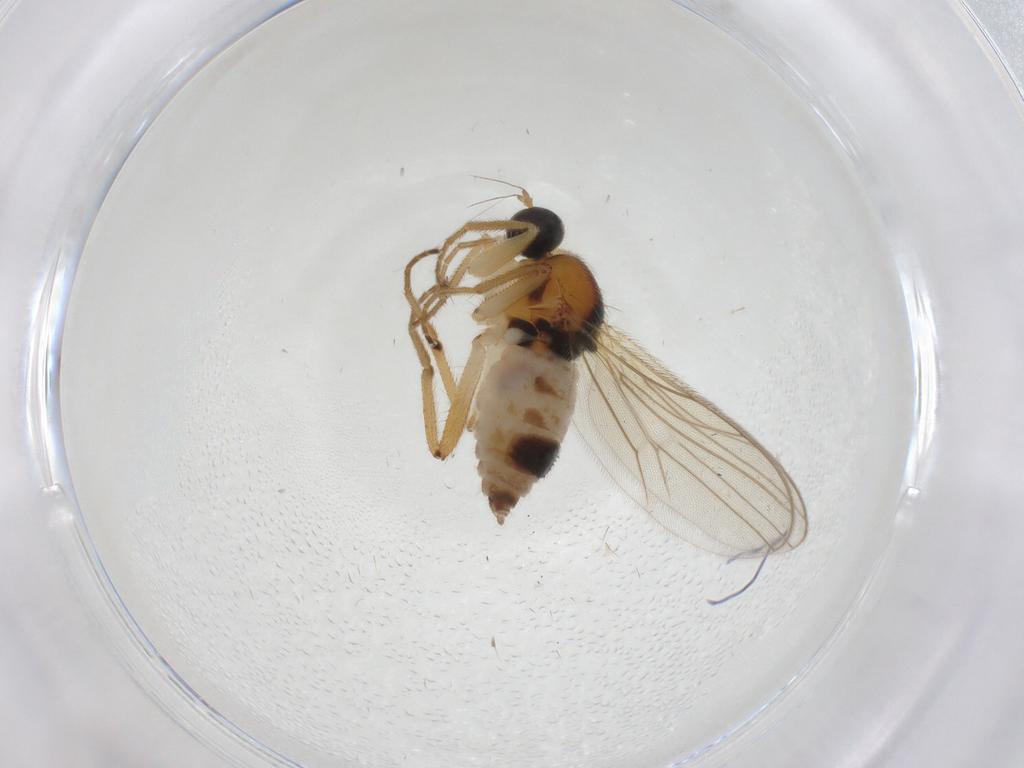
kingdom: Animalia
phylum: Arthropoda
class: Insecta
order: Diptera
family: Hybotidae
